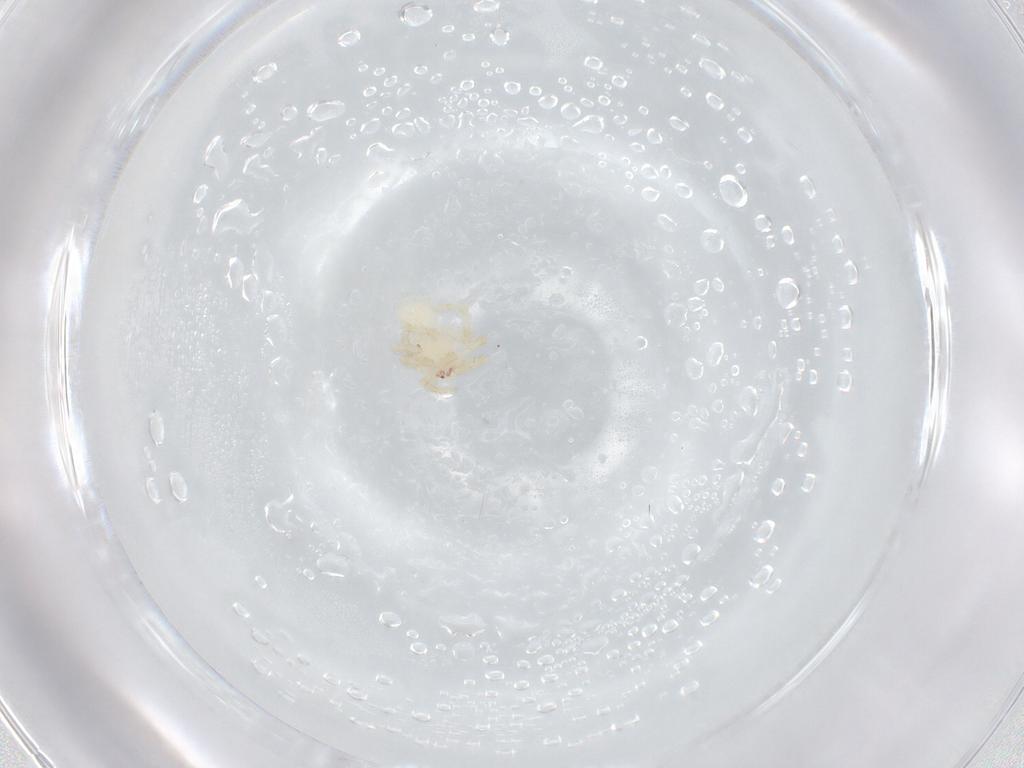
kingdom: Animalia
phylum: Arthropoda
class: Arachnida
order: Araneae
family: Theridiidae
